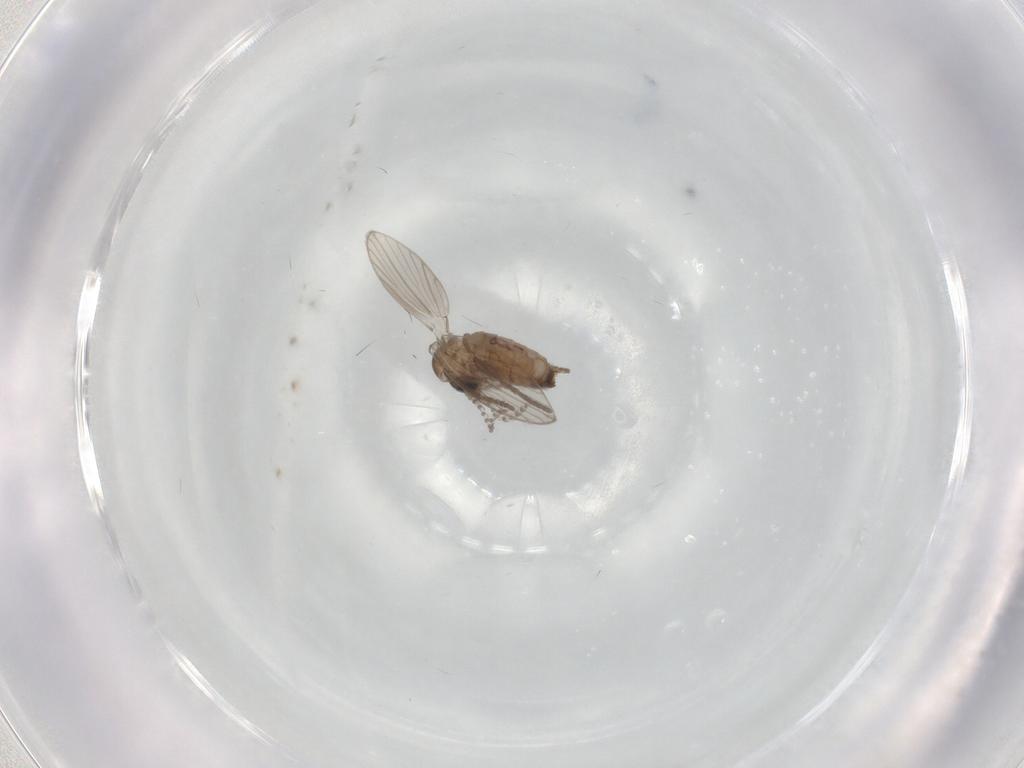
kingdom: Animalia
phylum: Arthropoda
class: Insecta
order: Diptera
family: Psychodidae
